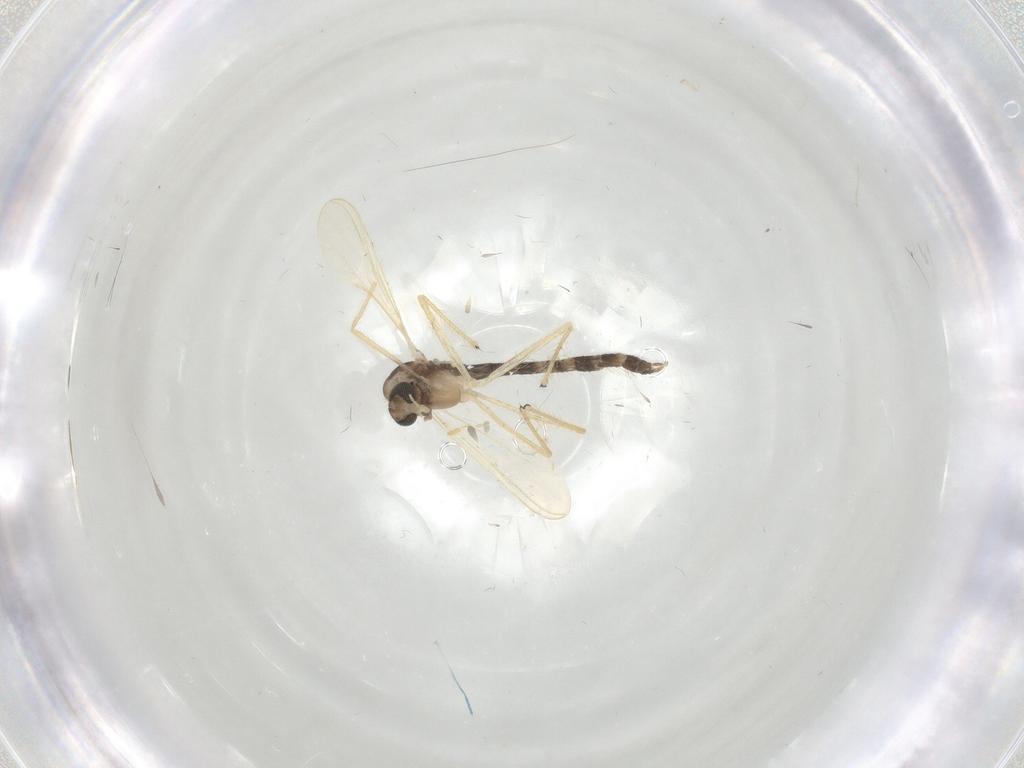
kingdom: Animalia
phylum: Arthropoda
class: Insecta
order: Diptera
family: Chironomidae
